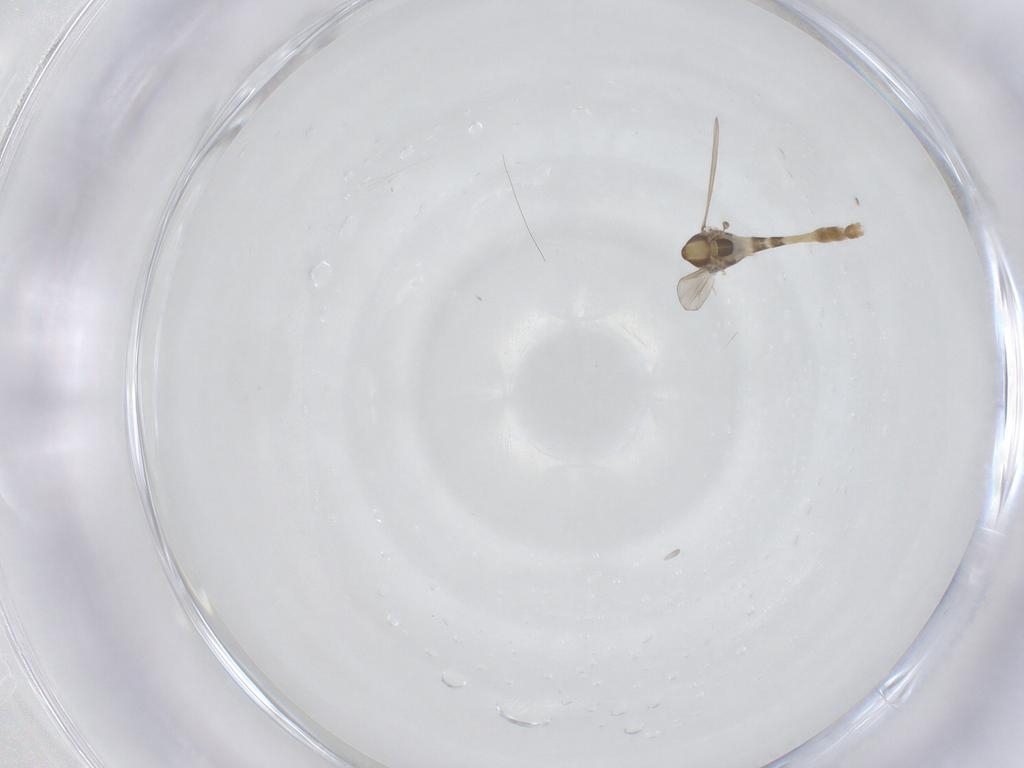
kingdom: Animalia
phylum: Arthropoda
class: Insecta
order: Diptera
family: Chironomidae
